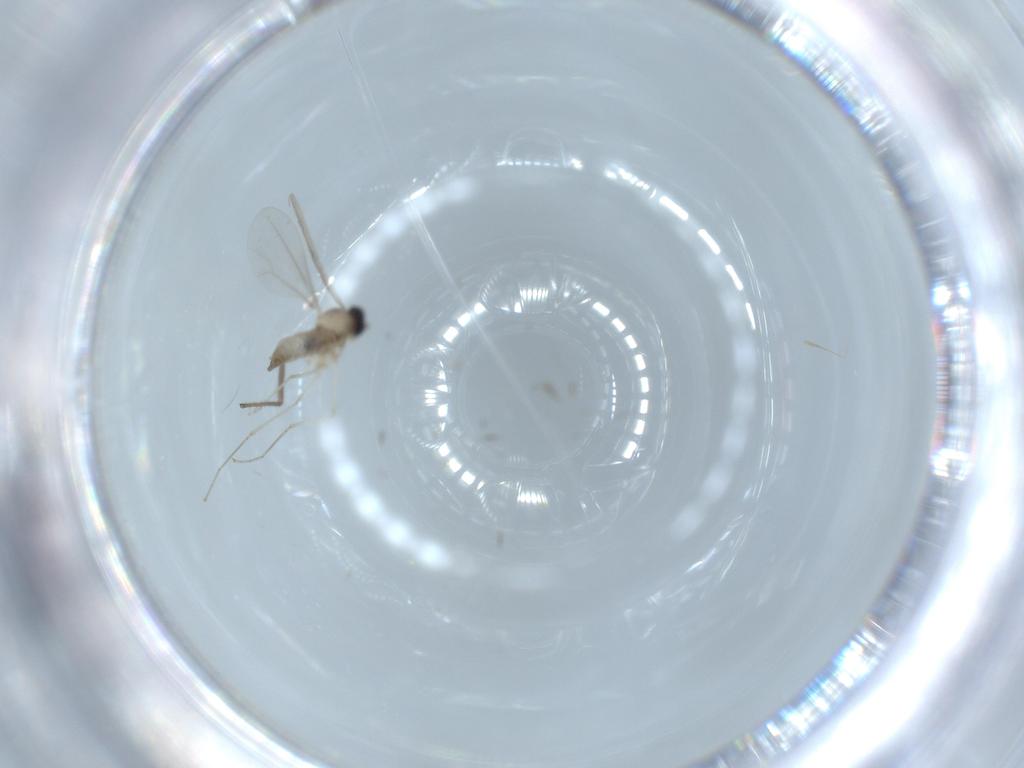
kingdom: Animalia
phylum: Arthropoda
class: Insecta
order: Diptera
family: Cecidomyiidae
